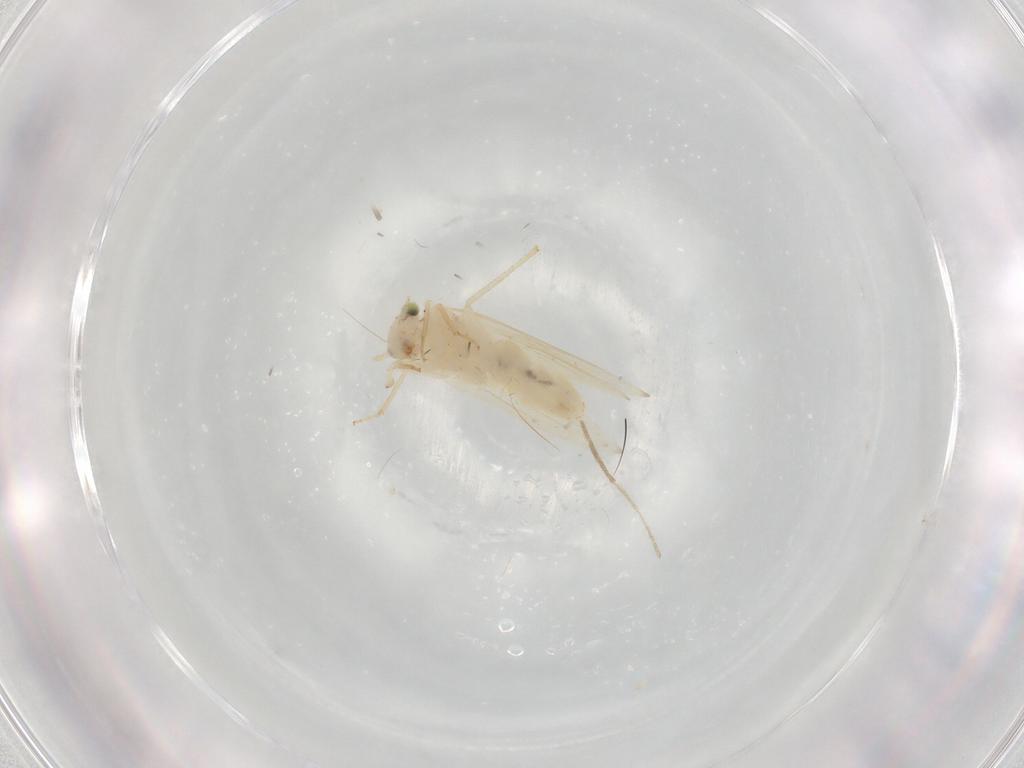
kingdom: Animalia
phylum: Arthropoda
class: Insecta
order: Psocodea
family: Lepidopsocidae
